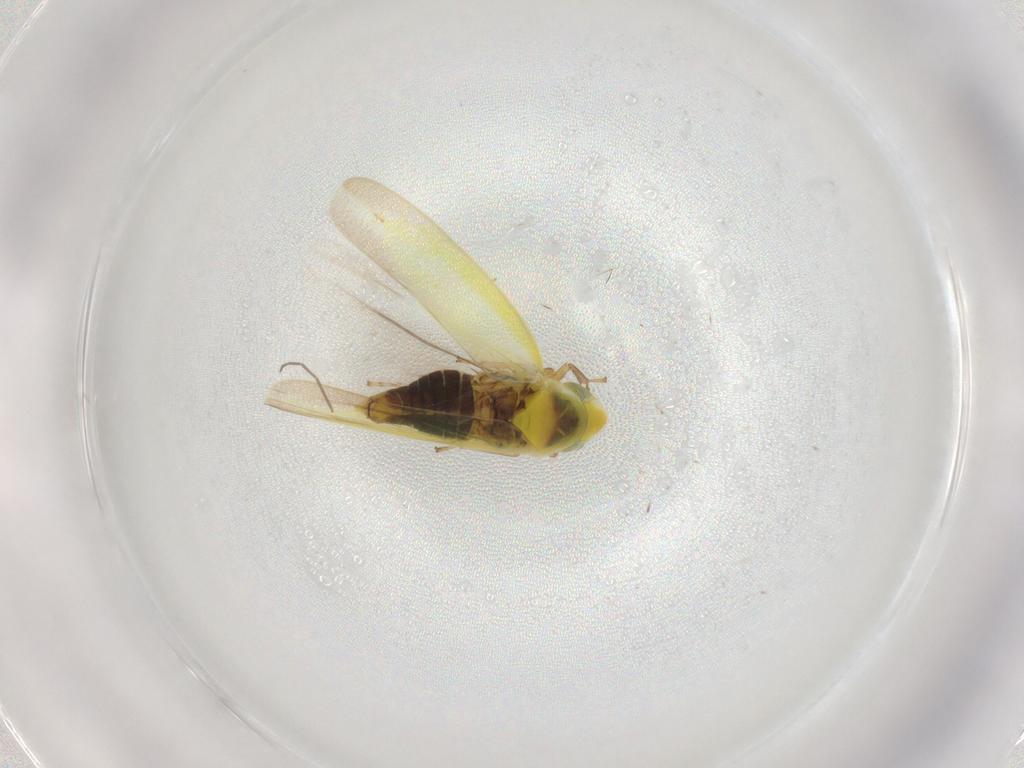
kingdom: Animalia
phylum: Arthropoda
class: Insecta
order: Hemiptera
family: Cicadellidae
